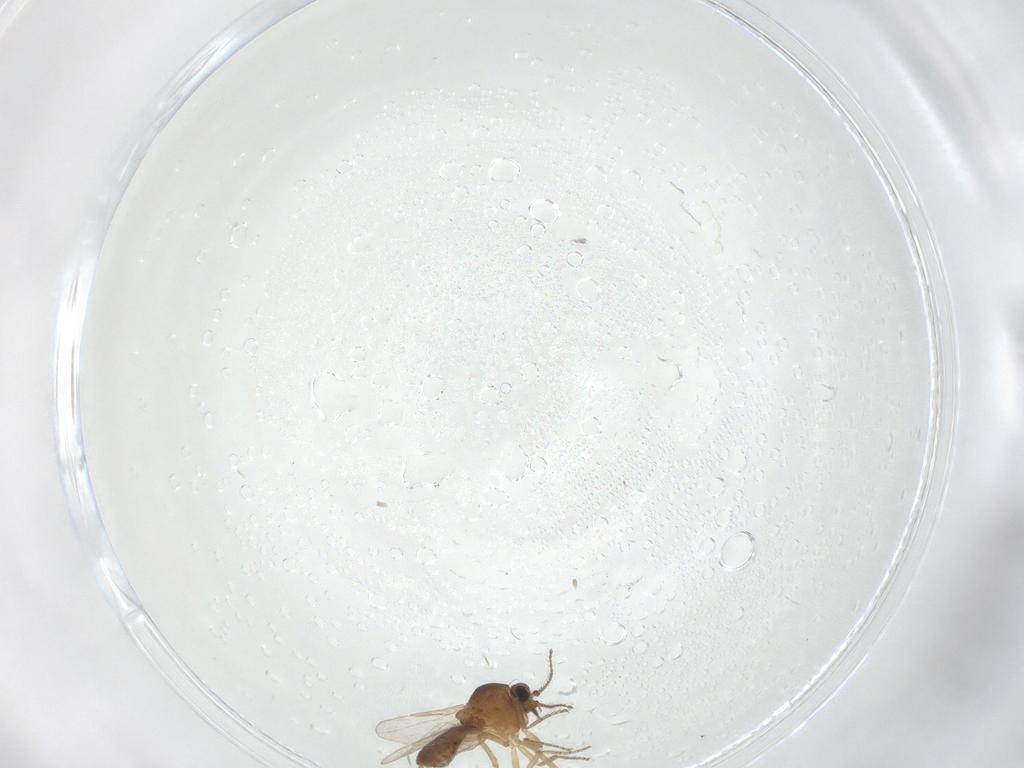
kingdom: Animalia
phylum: Arthropoda
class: Insecta
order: Diptera
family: Ceratopogonidae
